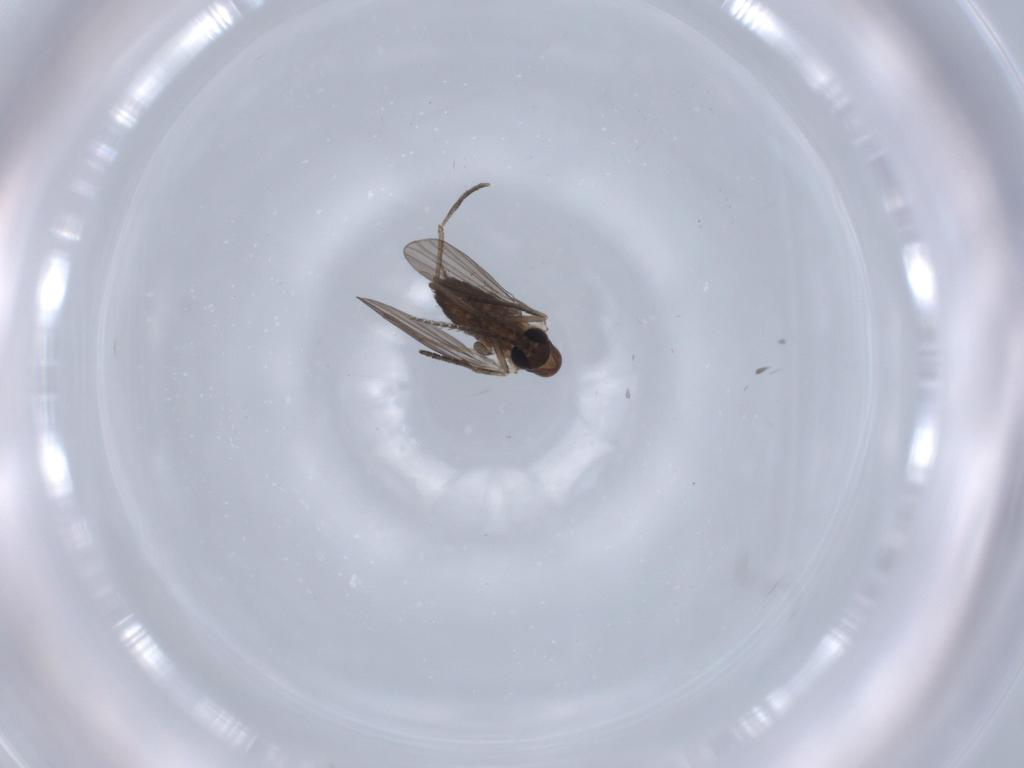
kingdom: Animalia
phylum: Arthropoda
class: Insecta
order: Diptera
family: Psychodidae
